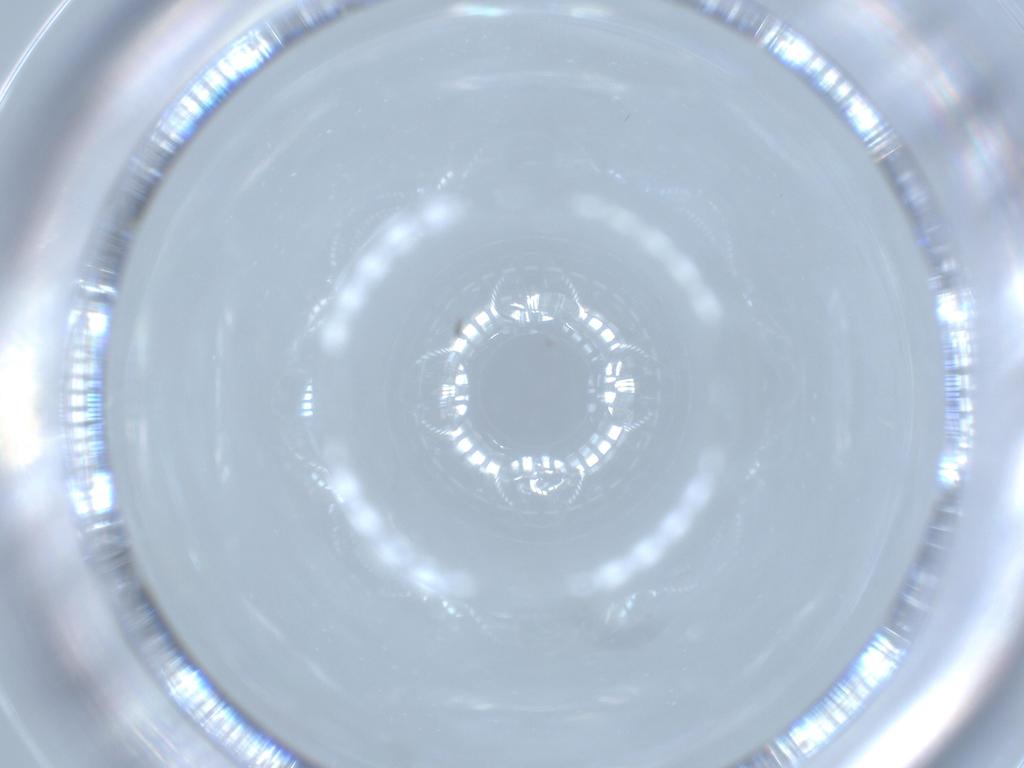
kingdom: Animalia
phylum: Arthropoda
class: Insecta
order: Diptera
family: Cecidomyiidae
